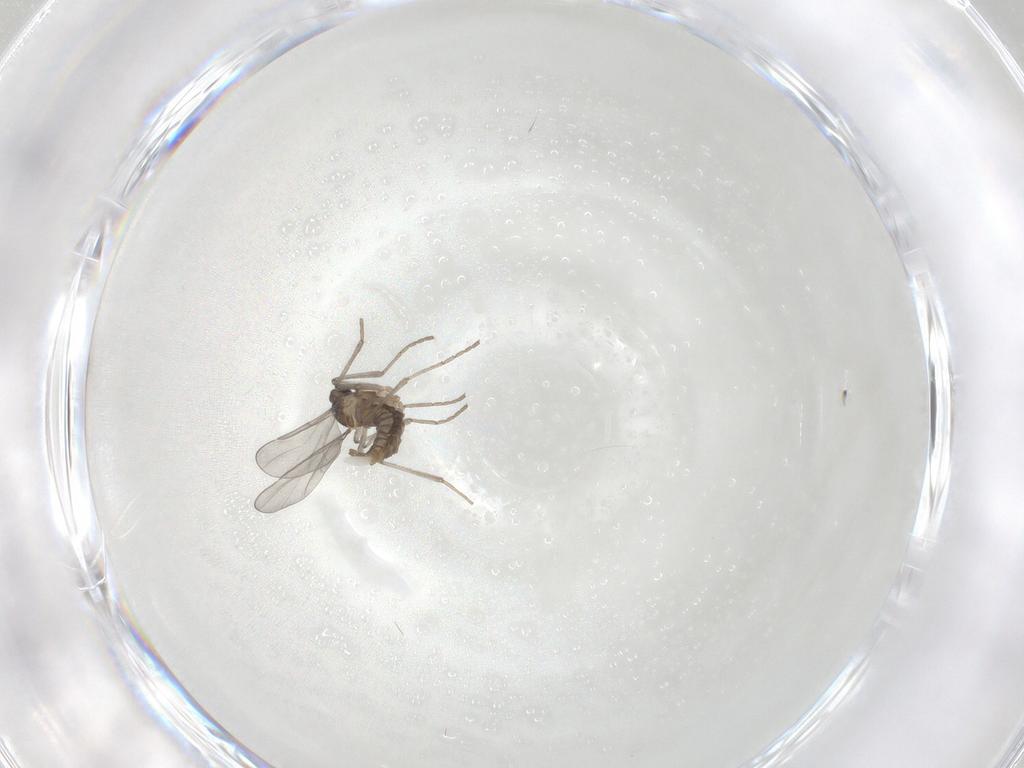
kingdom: Animalia
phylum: Arthropoda
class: Insecta
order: Diptera
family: Cecidomyiidae
